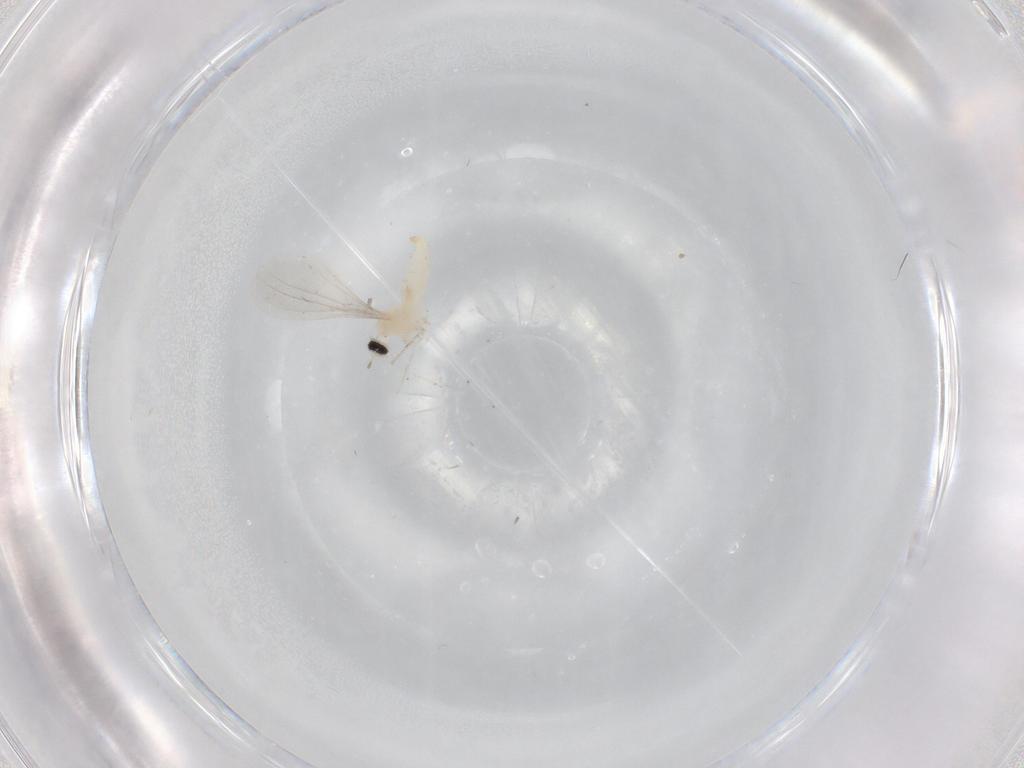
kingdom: Animalia
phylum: Arthropoda
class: Insecta
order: Diptera
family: Cecidomyiidae
